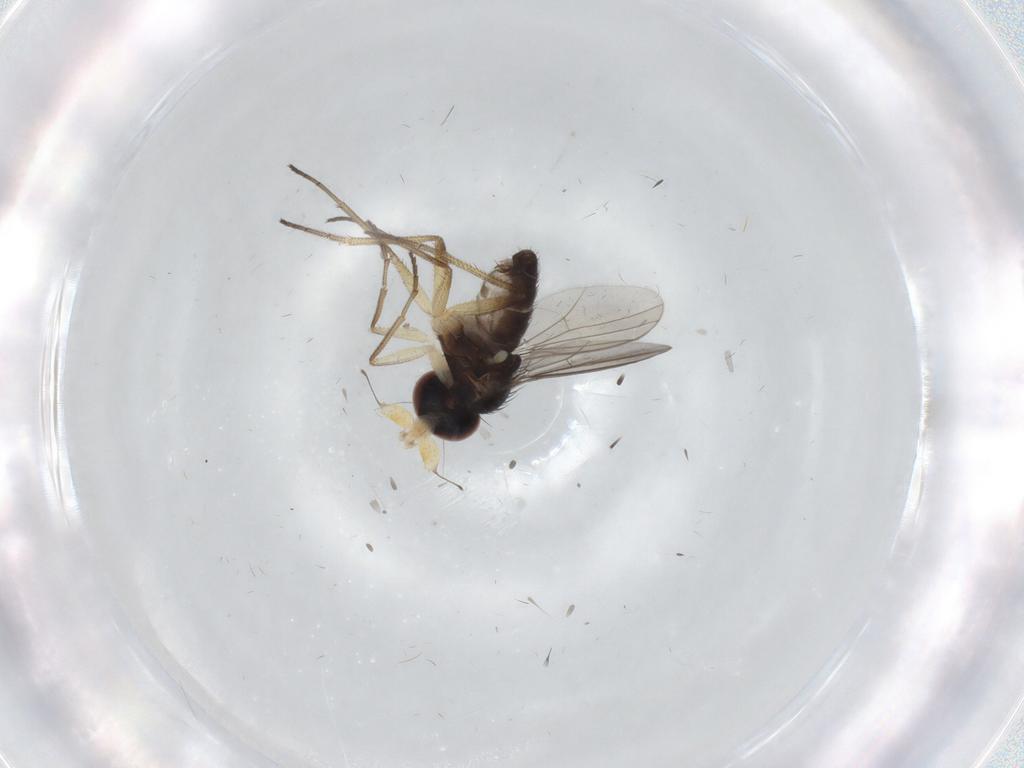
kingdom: Animalia
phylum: Arthropoda
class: Insecta
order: Diptera
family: Dolichopodidae
